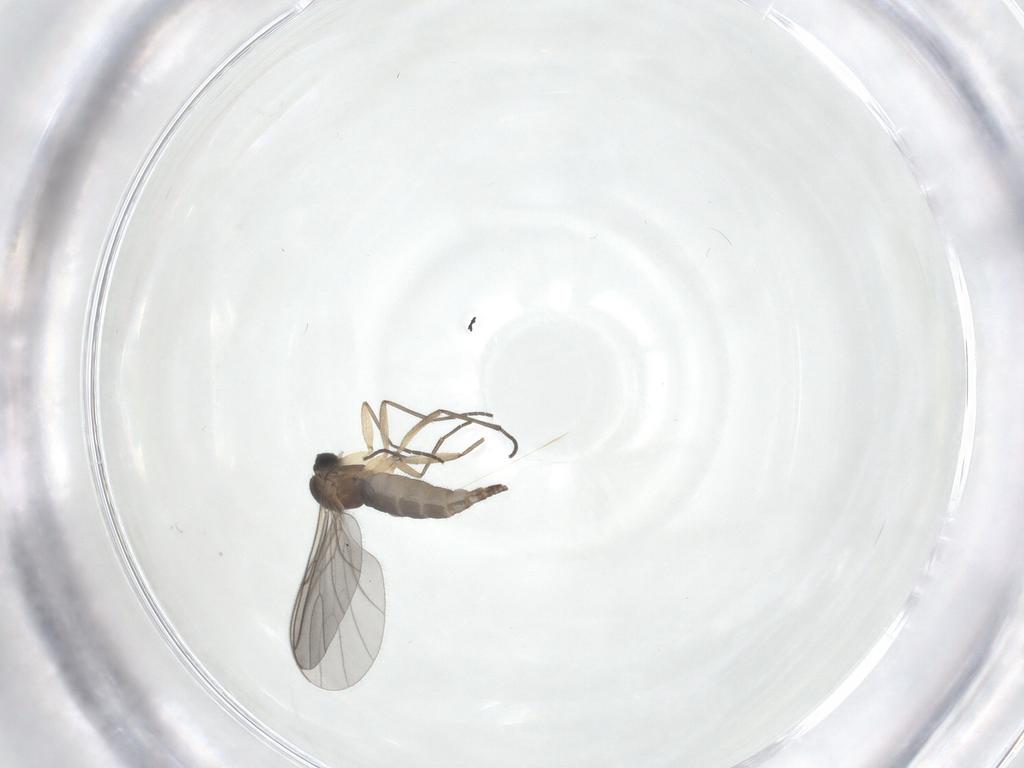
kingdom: Animalia
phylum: Arthropoda
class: Insecta
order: Diptera
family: Sciaridae
